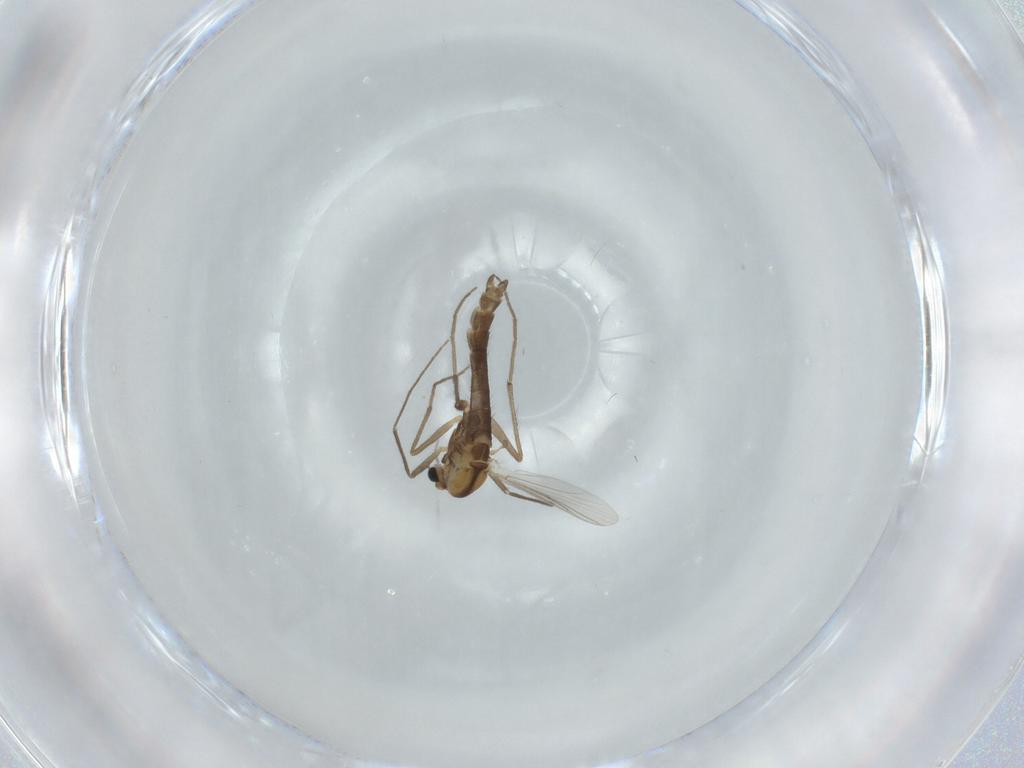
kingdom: Animalia
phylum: Arthropoda
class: Insecta
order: Diptera
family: Chironomidae
